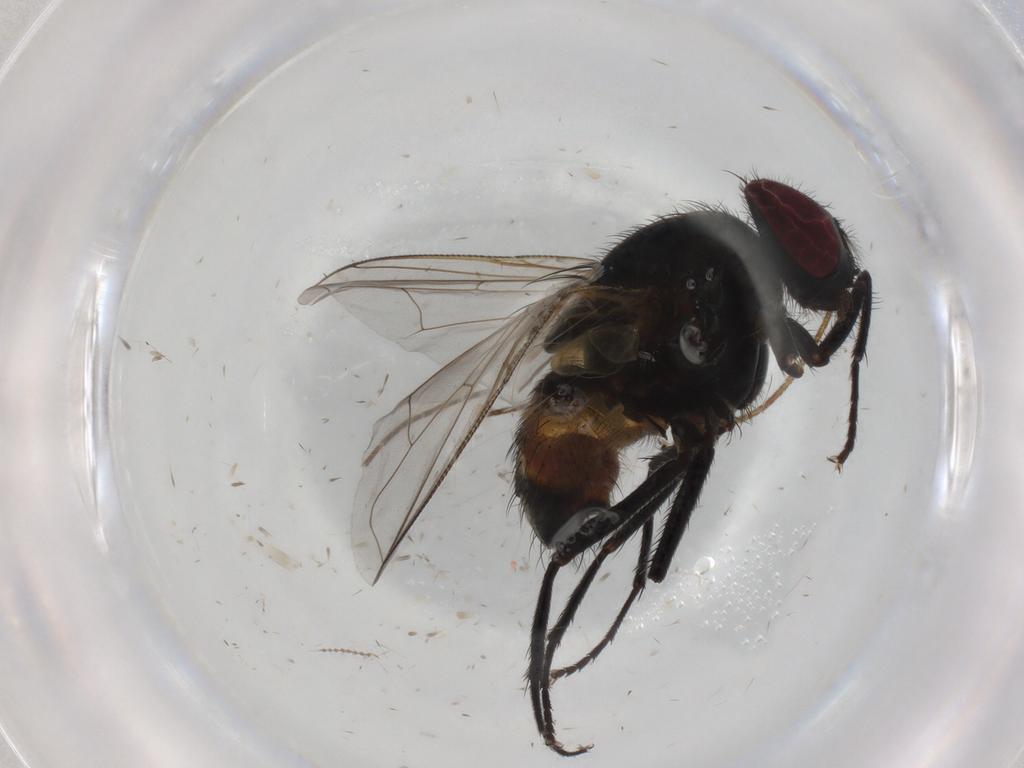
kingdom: Animalia
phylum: Arthropoda
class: Insecta
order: Diptera
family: Muscidae
